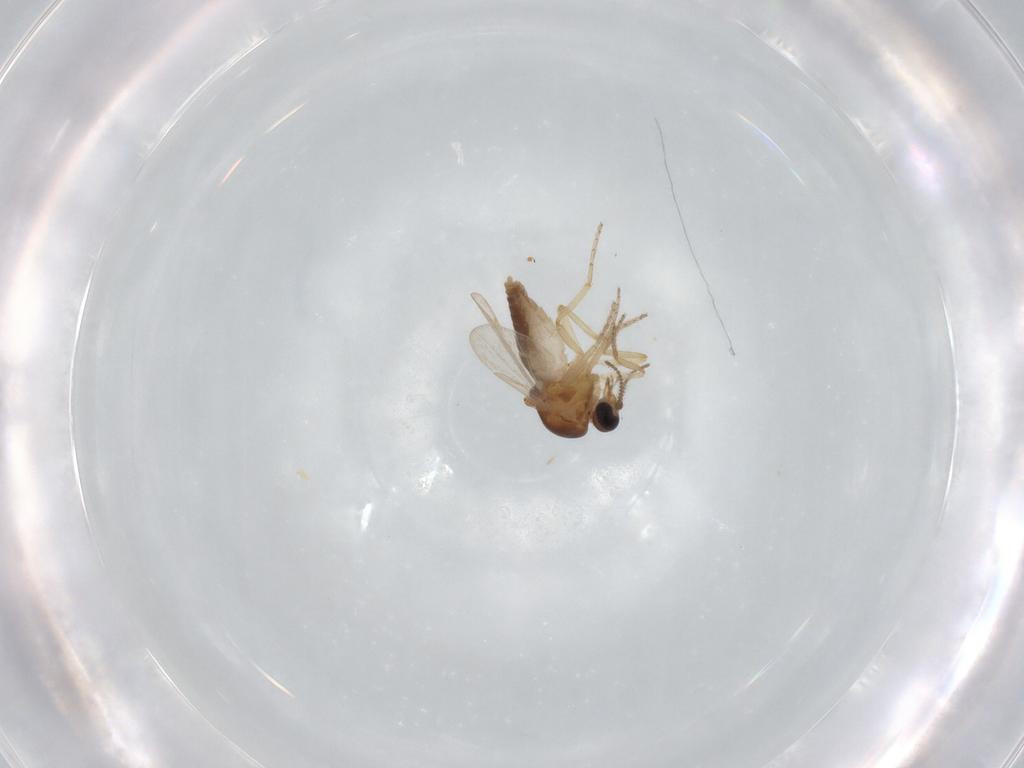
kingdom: Animalia
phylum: Arthropoda
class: Insecta
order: Diptera
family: Ceratopogonidae
